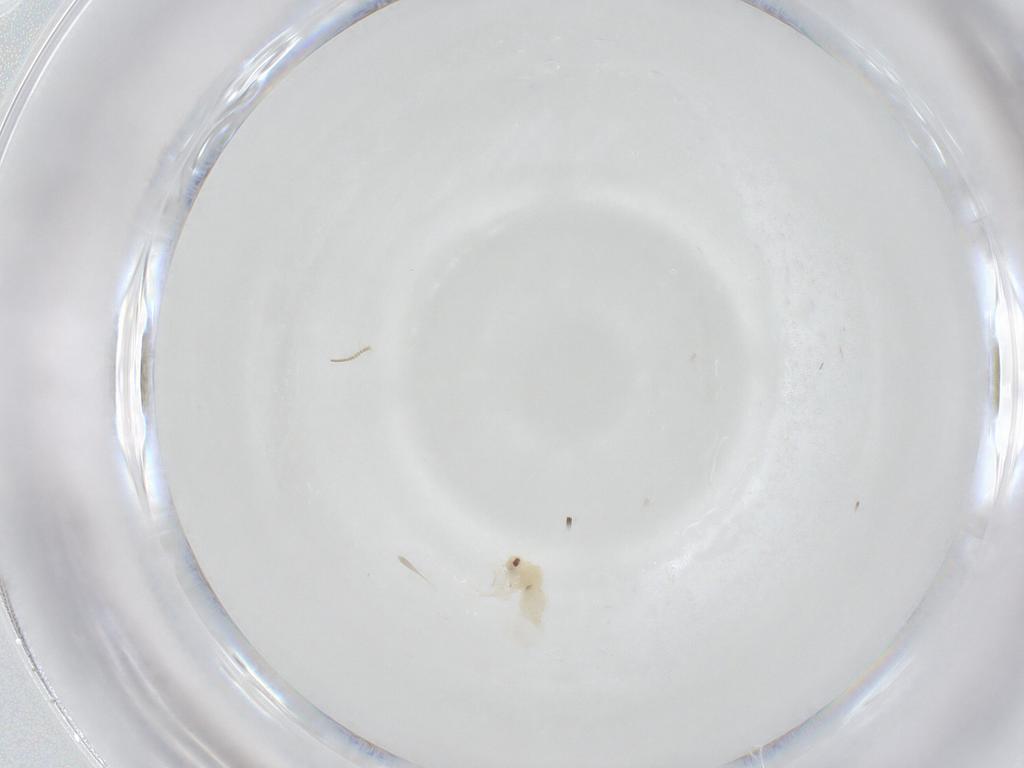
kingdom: Animalia
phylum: Arthropoda
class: Insecta
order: Hemiptera
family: Aleyrodidae
